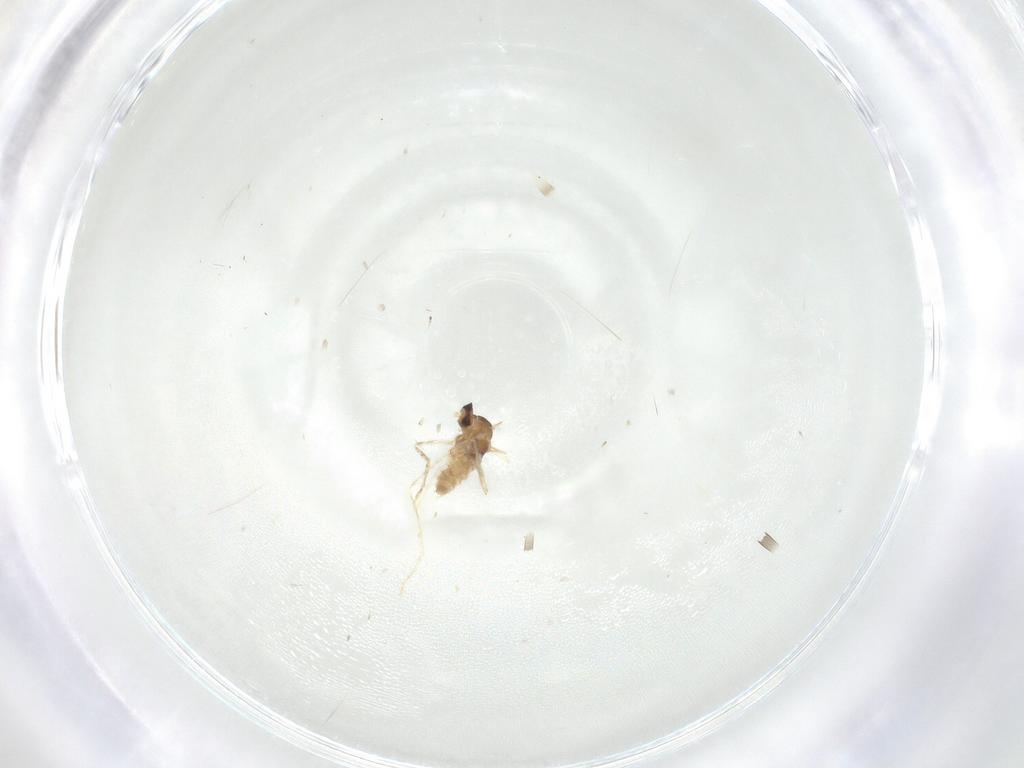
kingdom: Animalia
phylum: Arthropoda
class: Insecta
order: Diptera
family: Cecidomyiidae
